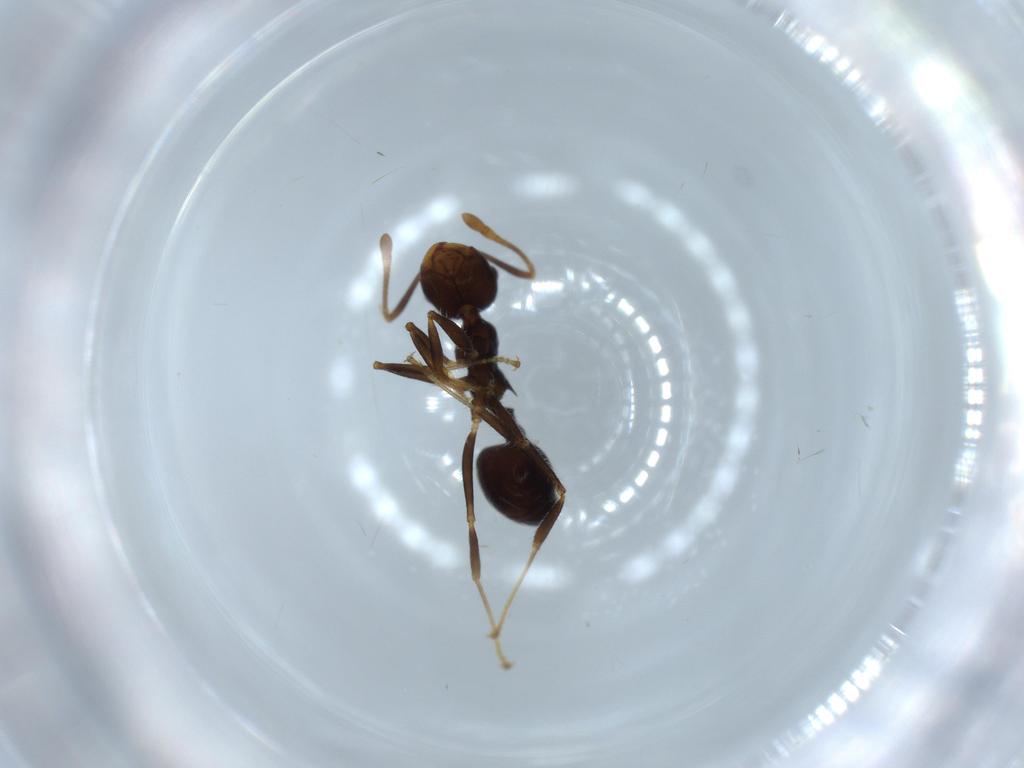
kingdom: Animalia
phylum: Arthropoda
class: Insecta
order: Hymenoptera
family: Formicidae
